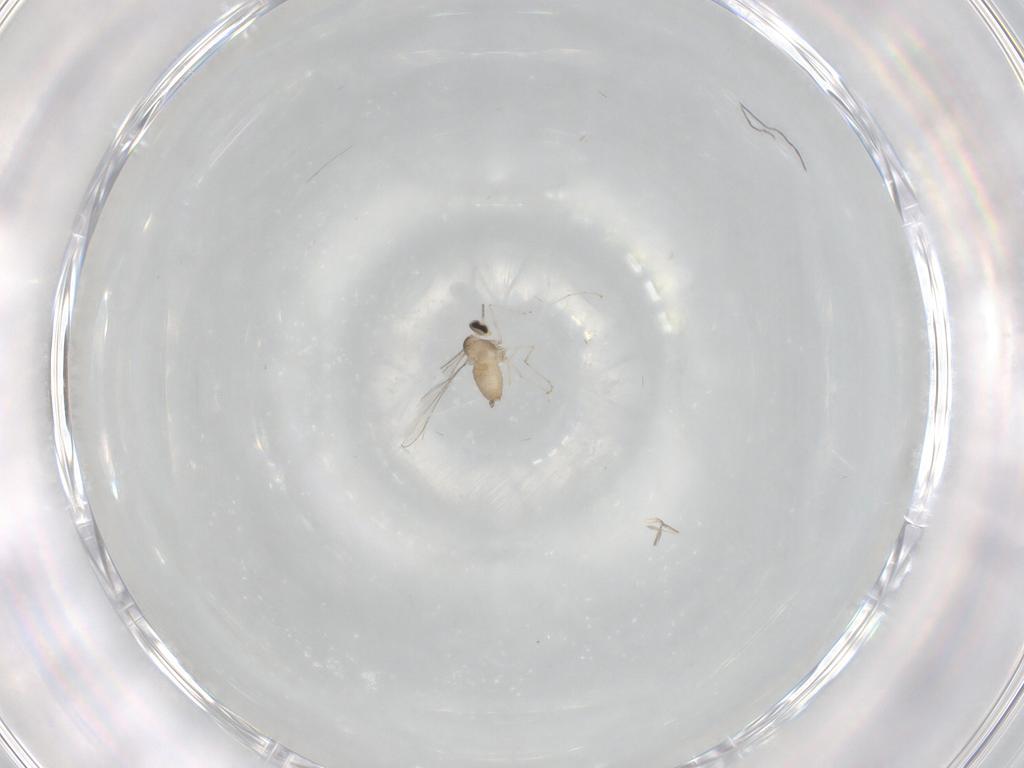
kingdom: Animalia
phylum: Arthropoda
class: Insecta
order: Diptera
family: Cecidomyiidae
